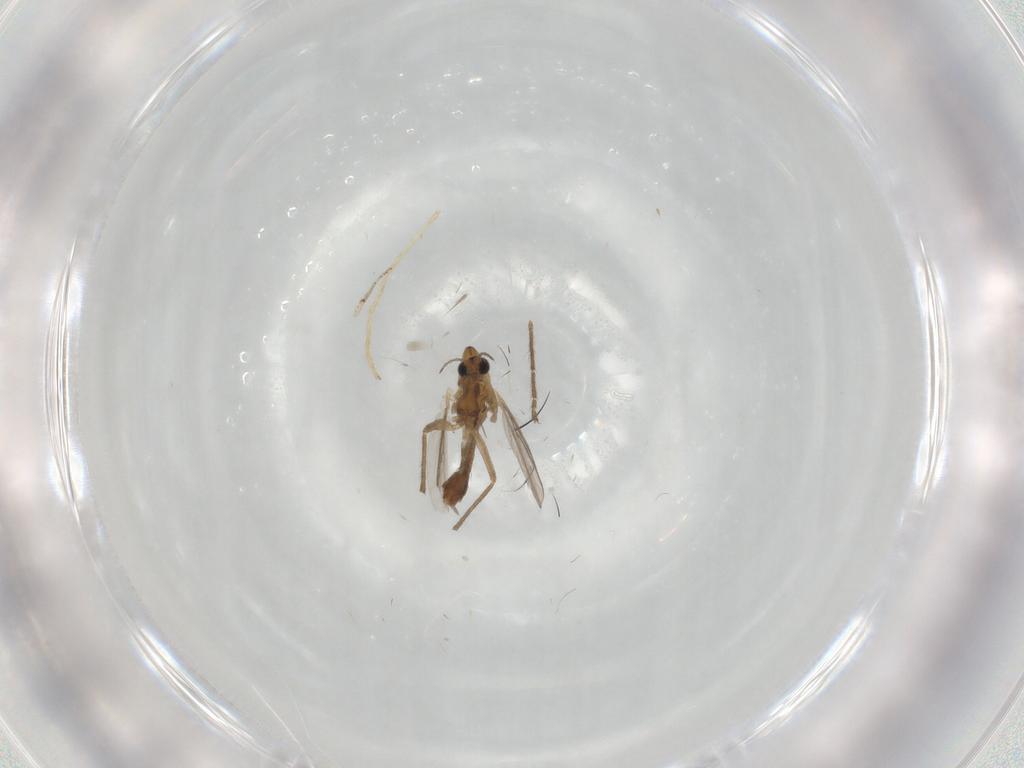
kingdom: Animalia
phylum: Arthropoda
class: Insecta
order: Diptera
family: Chironomidae
